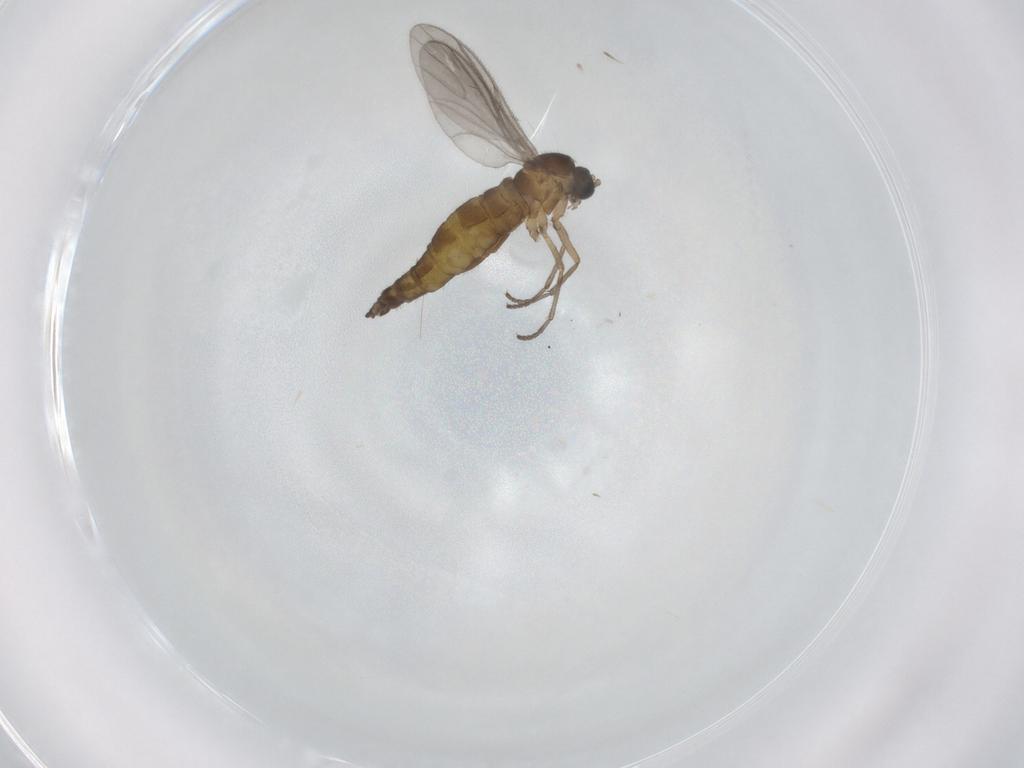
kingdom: Animalia
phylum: Arthropoda
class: Insecta
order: Diptera
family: Sciaridae
